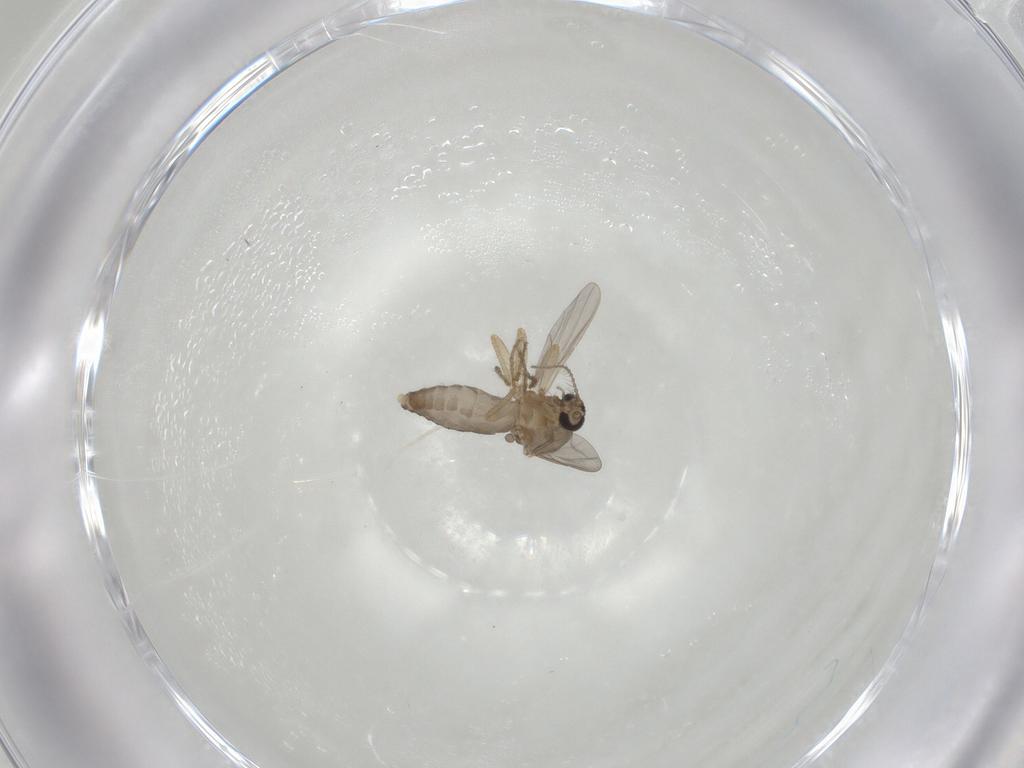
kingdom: Animalia
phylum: Arthropoda
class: Insecta
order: Diptera
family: Ceratopogonidae
